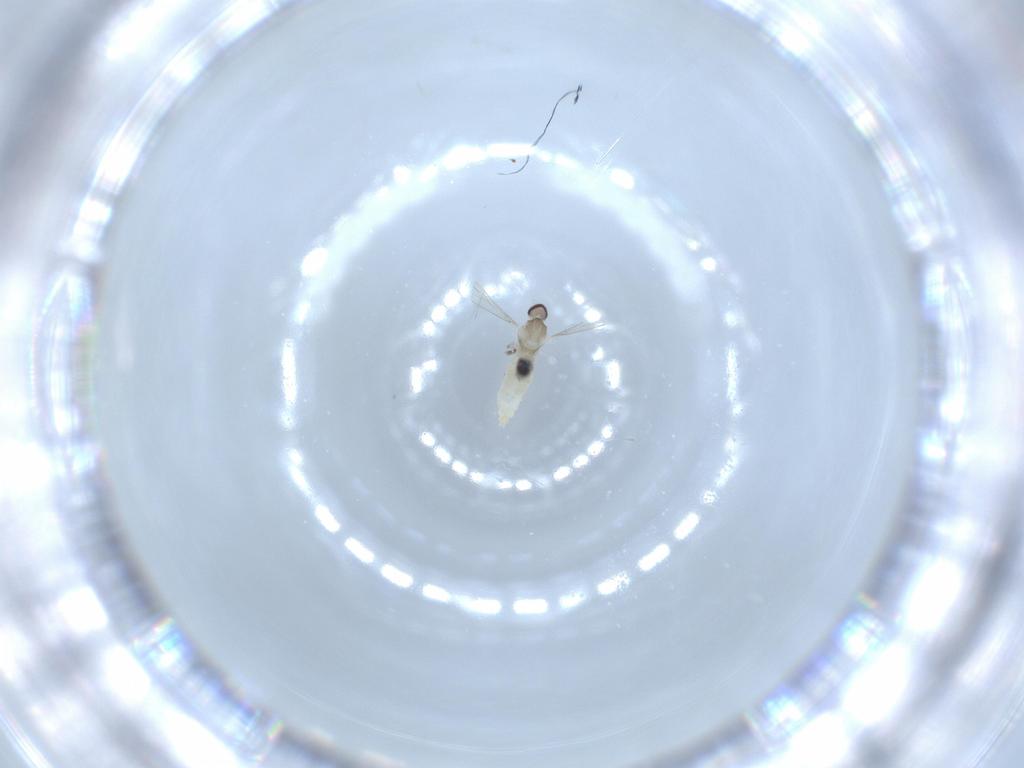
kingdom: Animalia
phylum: Arthropoda
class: Insecta
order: Diptera
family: Cecidomyiidae
